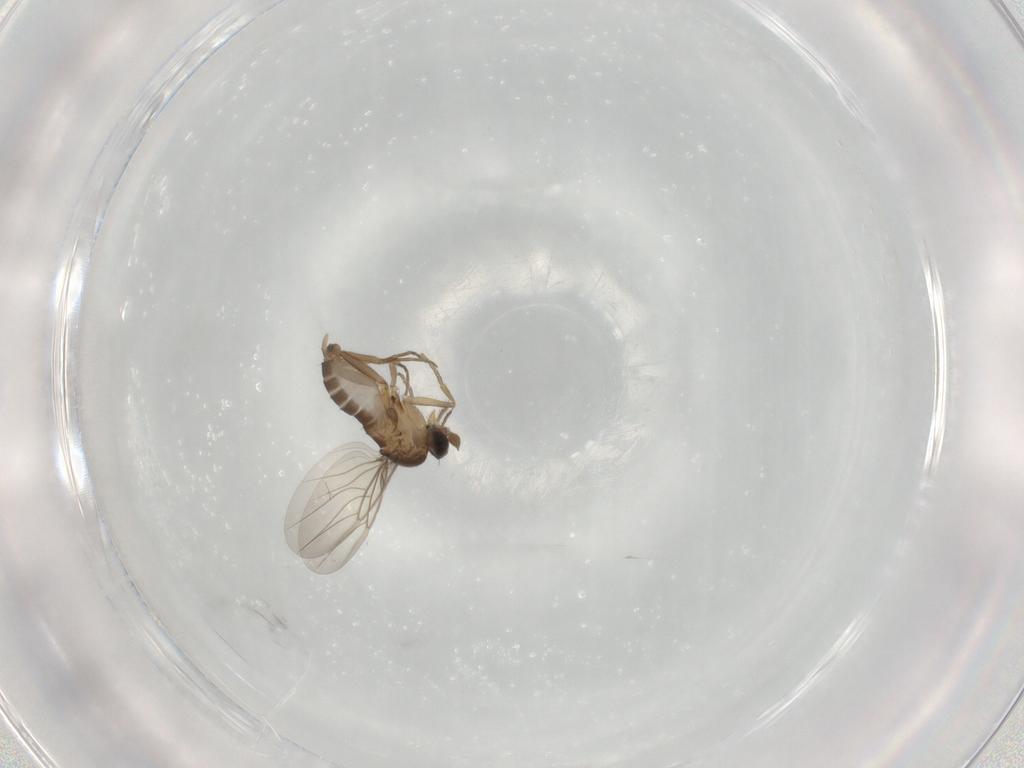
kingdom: Animalia
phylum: Arthropoda
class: Insecta
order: Diptera
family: Phoridae
